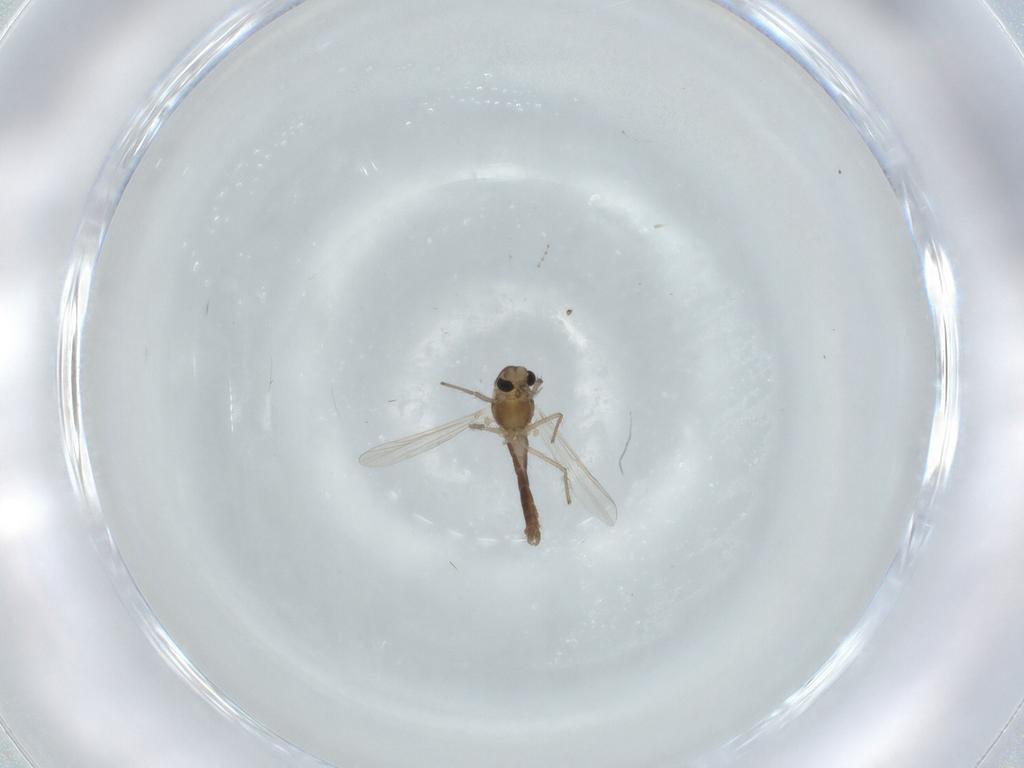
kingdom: Animalia
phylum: Arthropoda
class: Insecta
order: Diptera
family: Chironomidae
